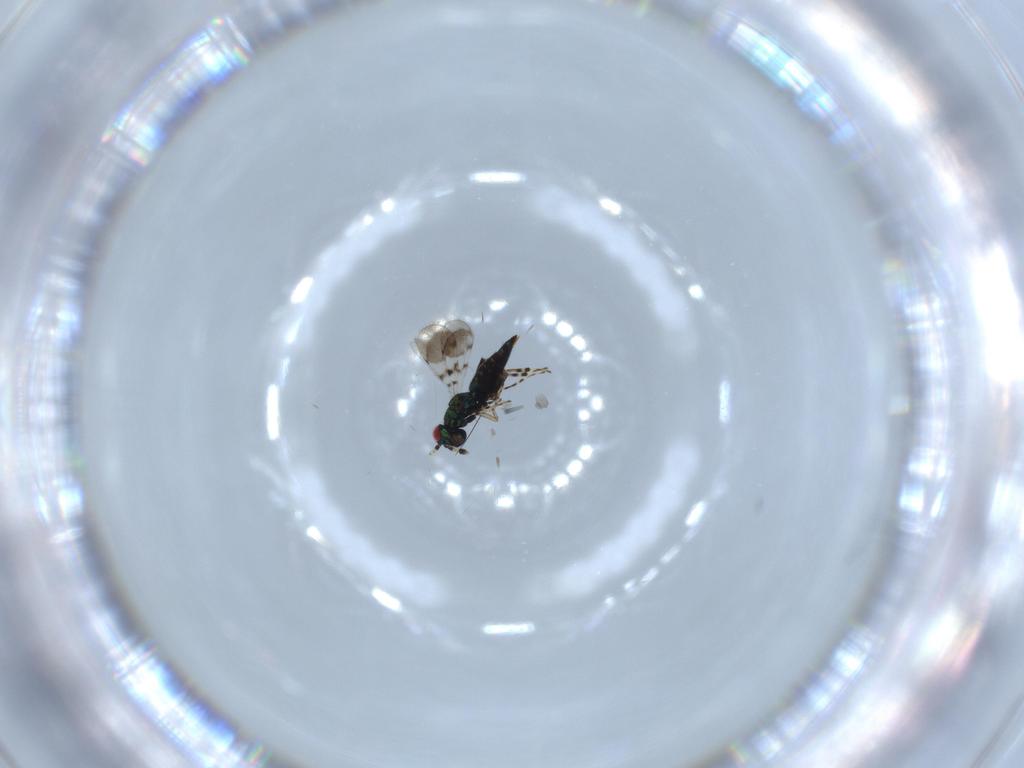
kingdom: Animalia
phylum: Arthropoda
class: Insecta
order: Hymenoptera
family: Eulophidae
